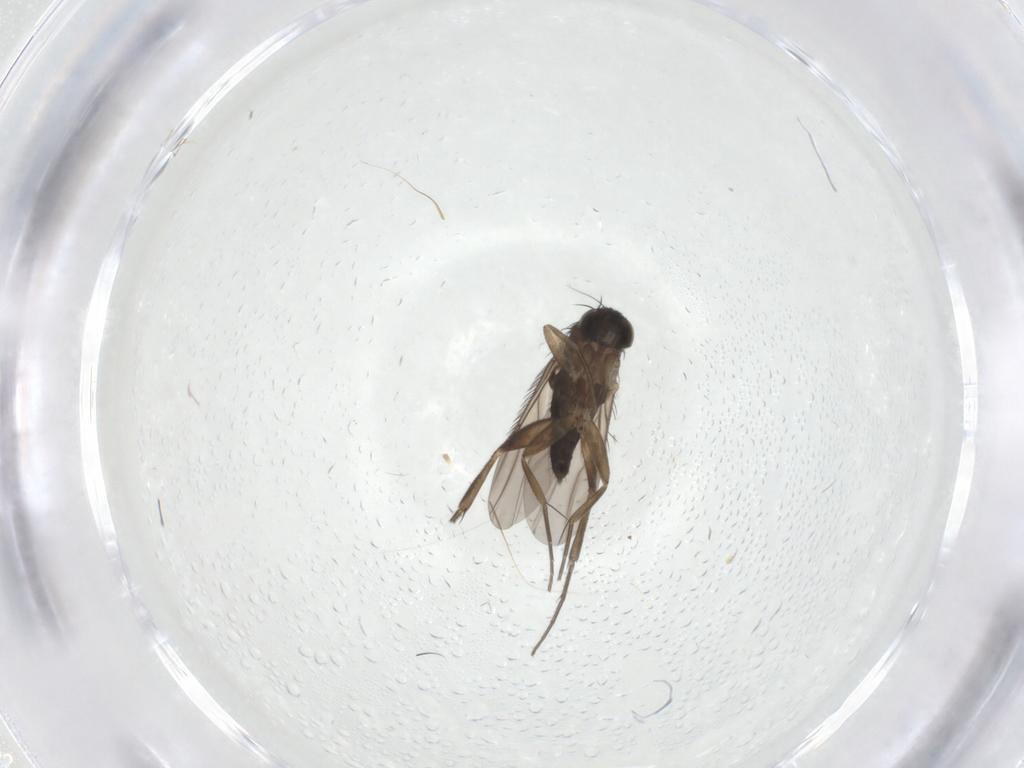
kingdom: Animalia
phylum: Arthropoda
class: Insecta
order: Diptera
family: Phoridae
